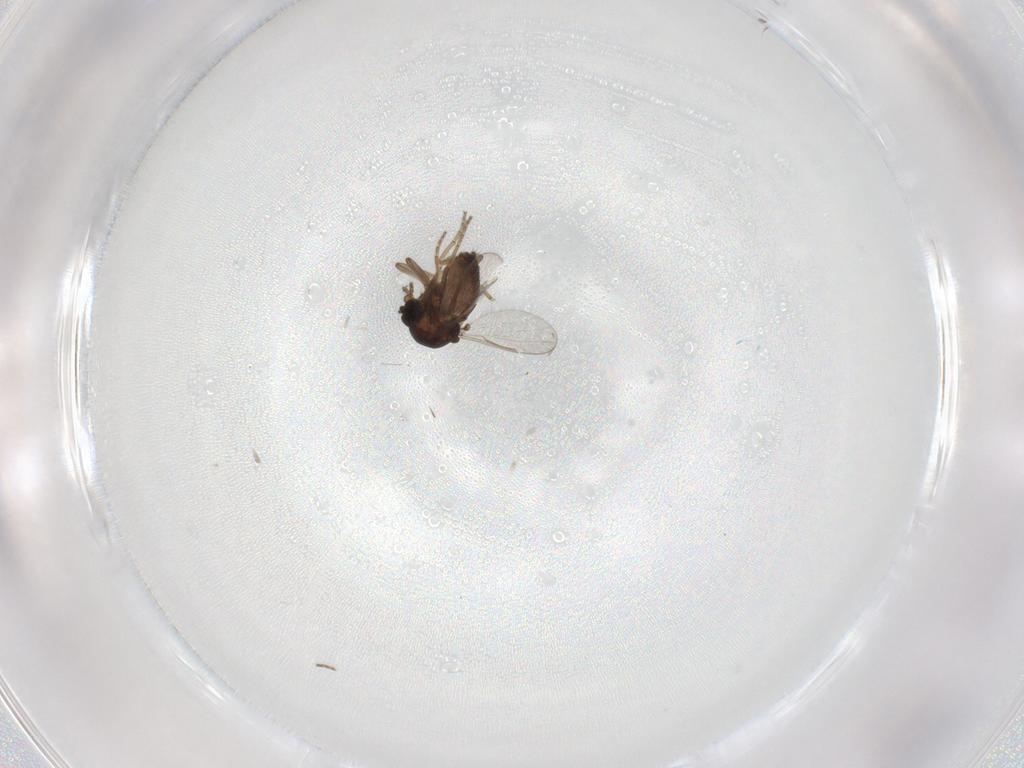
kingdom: Animalia
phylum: Arthropoda
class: Insecta
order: Diptera
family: Ceratopogonidae
